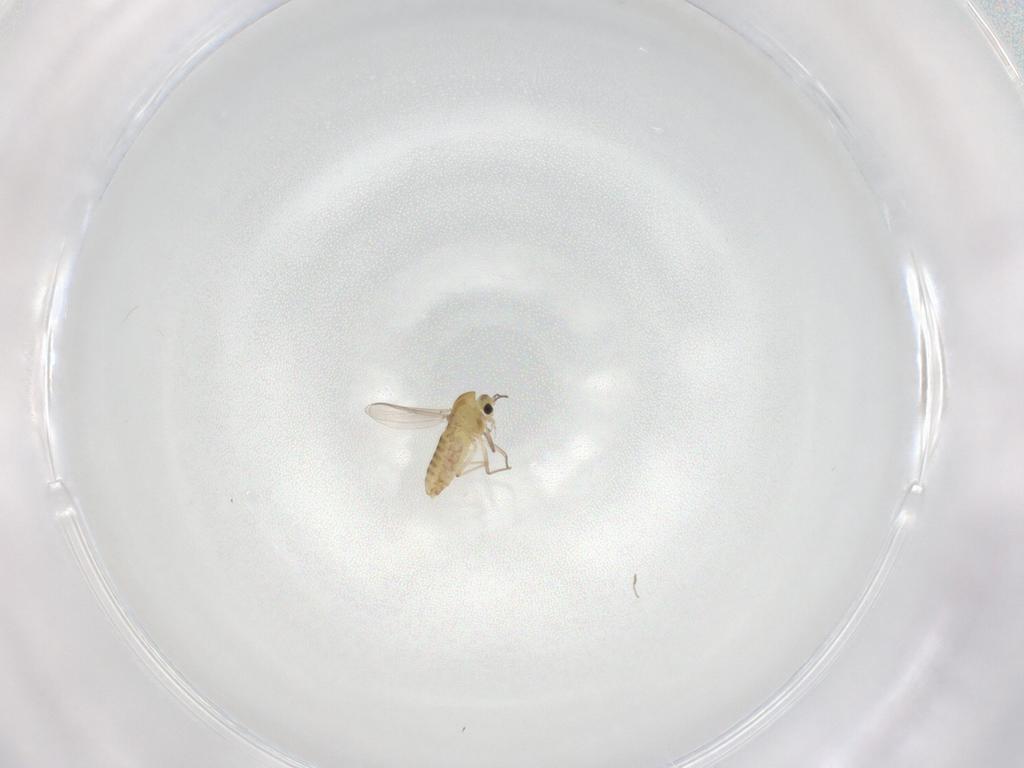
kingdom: Animalia
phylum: Arthropoda
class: Insecta
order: Diptera
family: Chironomidae
